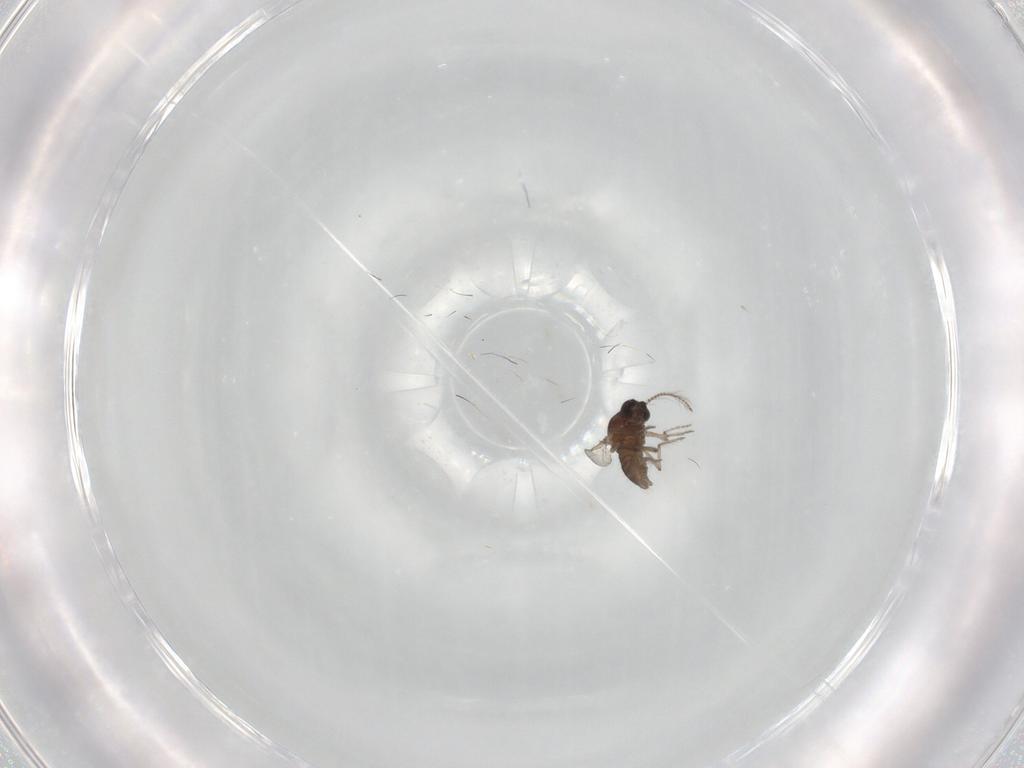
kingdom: Animalia
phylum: Arthropoda
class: Insecta
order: Diptera
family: Ceratopogonidae
